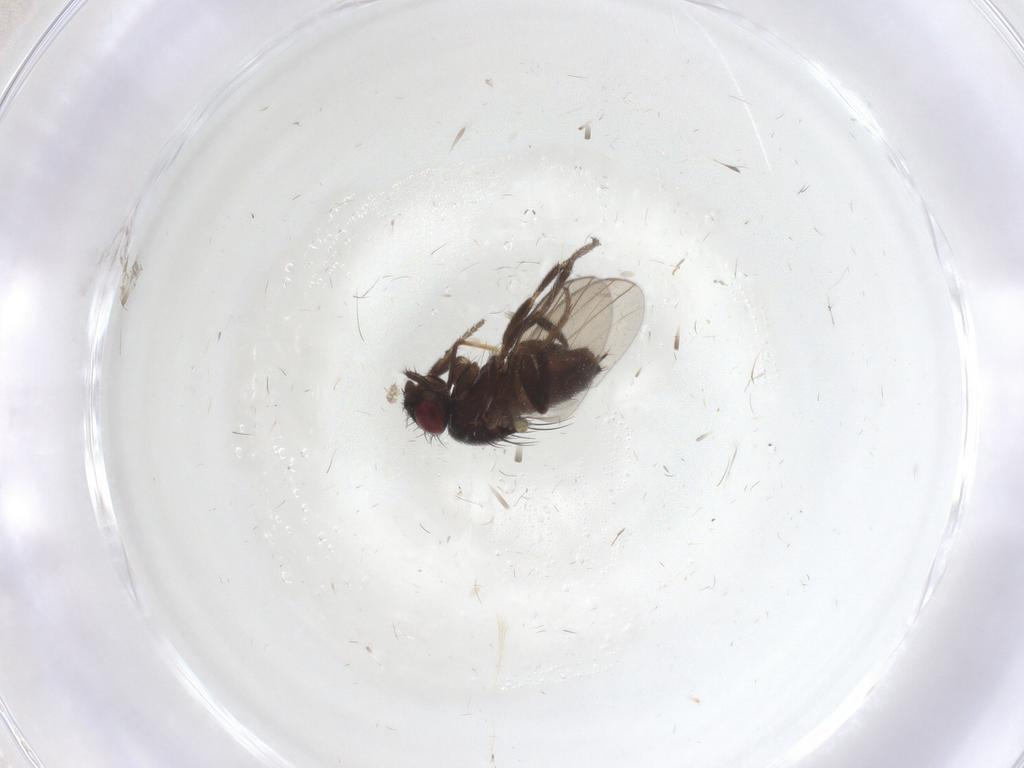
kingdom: Animalia
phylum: Arthropoda
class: Insecta
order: Diptera
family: Milichiidae
